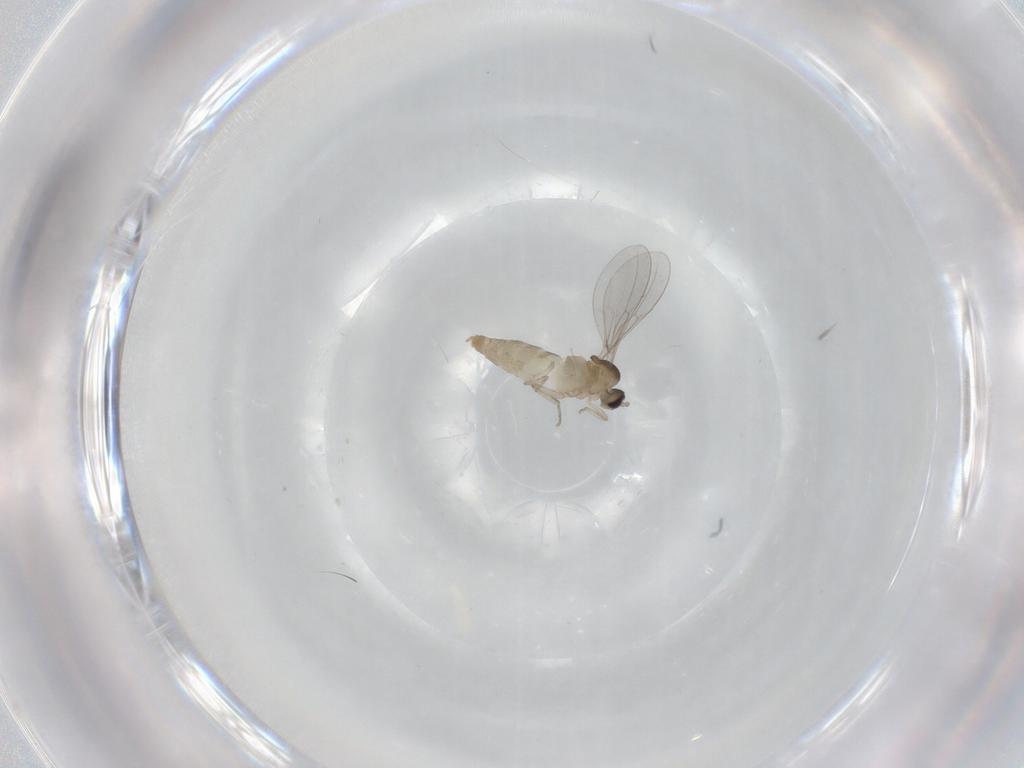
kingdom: Animalia
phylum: Arthropoda
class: Insecta
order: Diptera
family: Cecidomyiidae
